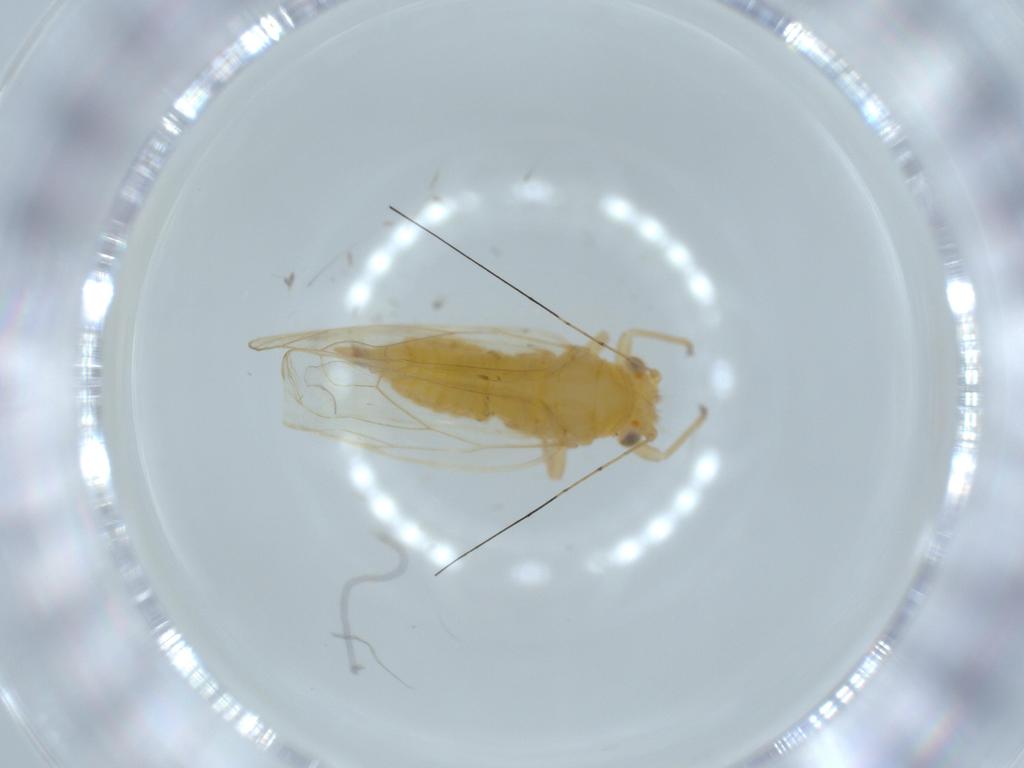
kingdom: Animalia
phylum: Arthropoda
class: Insecta
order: Hemiptera
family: Psyllidae
